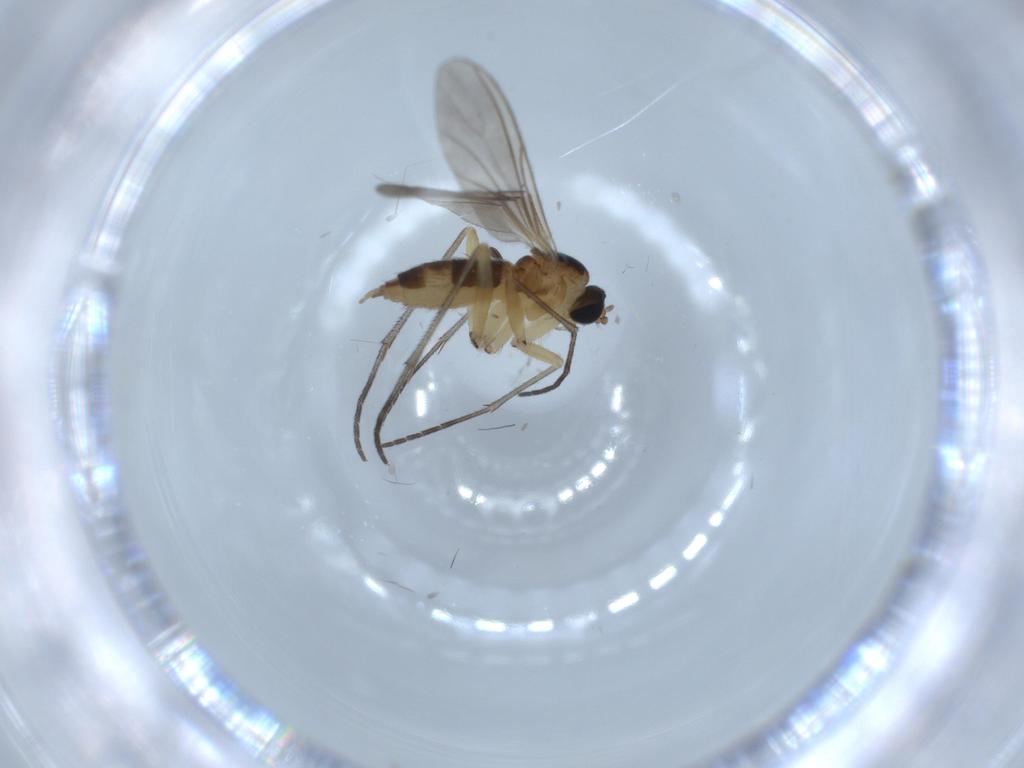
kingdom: Animalia
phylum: Arthropoda
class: Insecta
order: Diptera
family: Sciaridae
